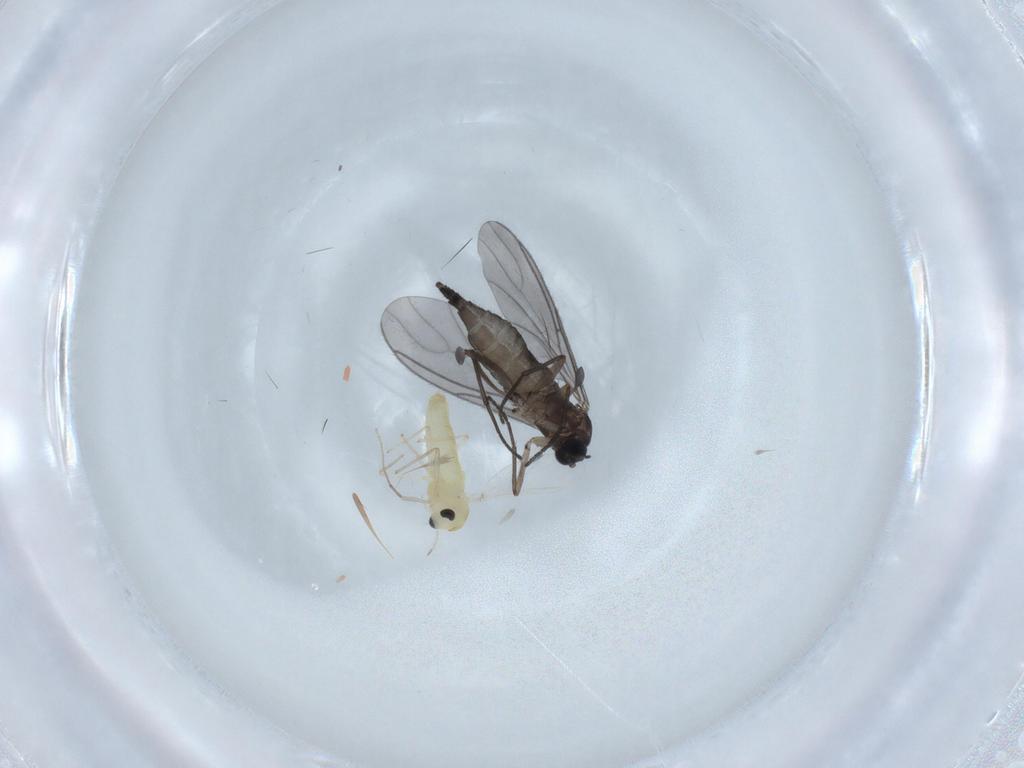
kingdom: Animalia
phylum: Arthropoda
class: Insecta
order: Diptera
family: Sciaridae
